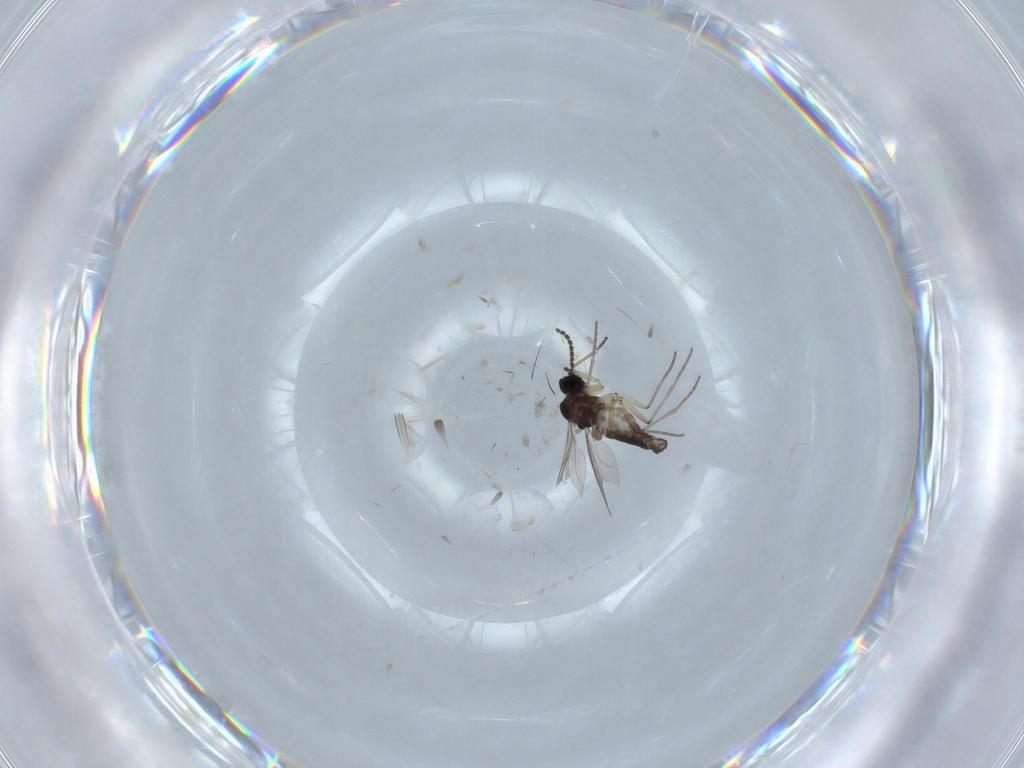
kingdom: Animalia
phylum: Arthropoda
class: Insecta
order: Diptera
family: Sciaridae
